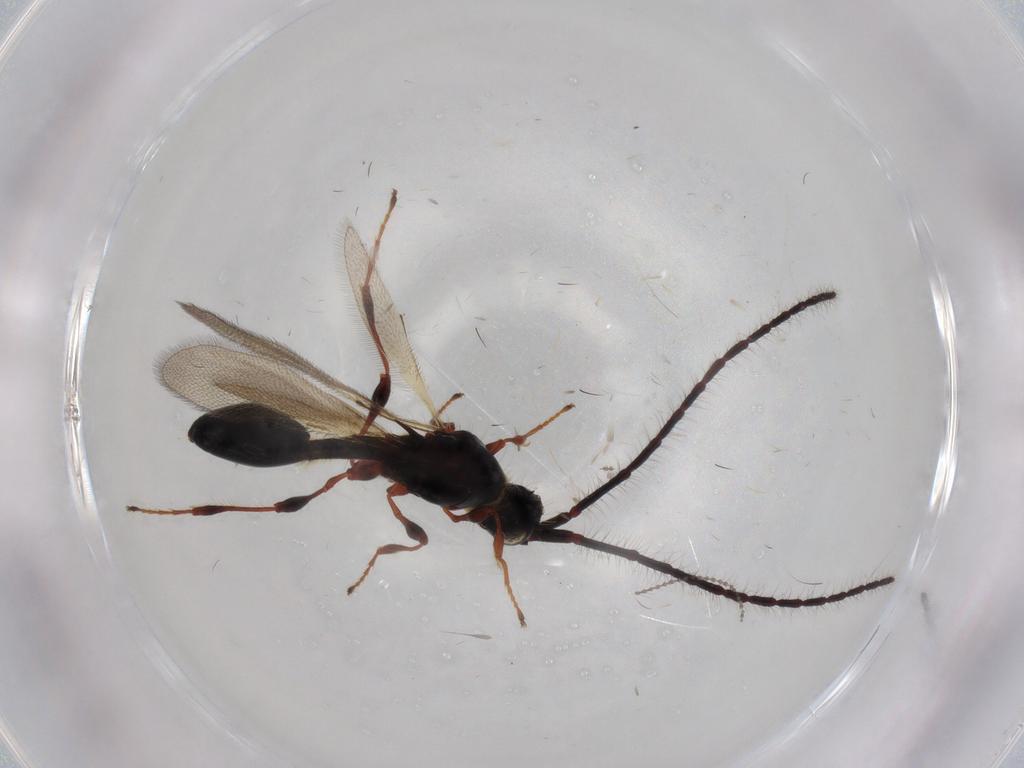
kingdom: Animalia
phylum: Arthropoda
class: Insecta
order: Hymenoptera
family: Diapriidae
